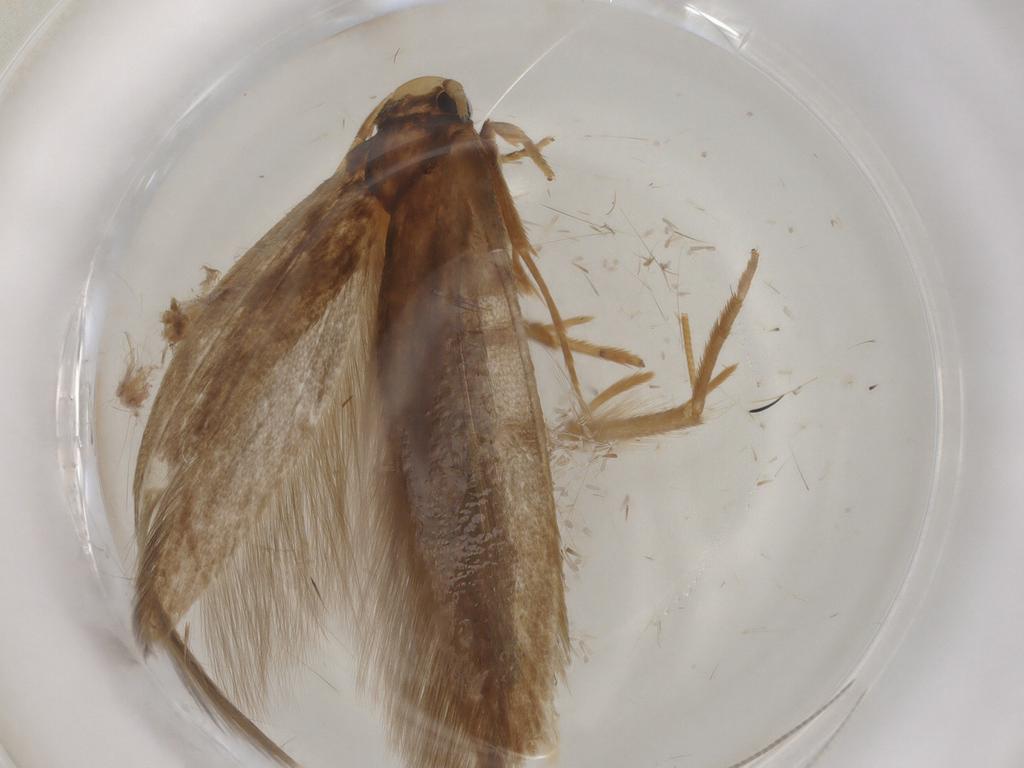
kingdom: Animalia
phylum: Arthropoda
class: Insecta
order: Lepidoptera
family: Tineidae
